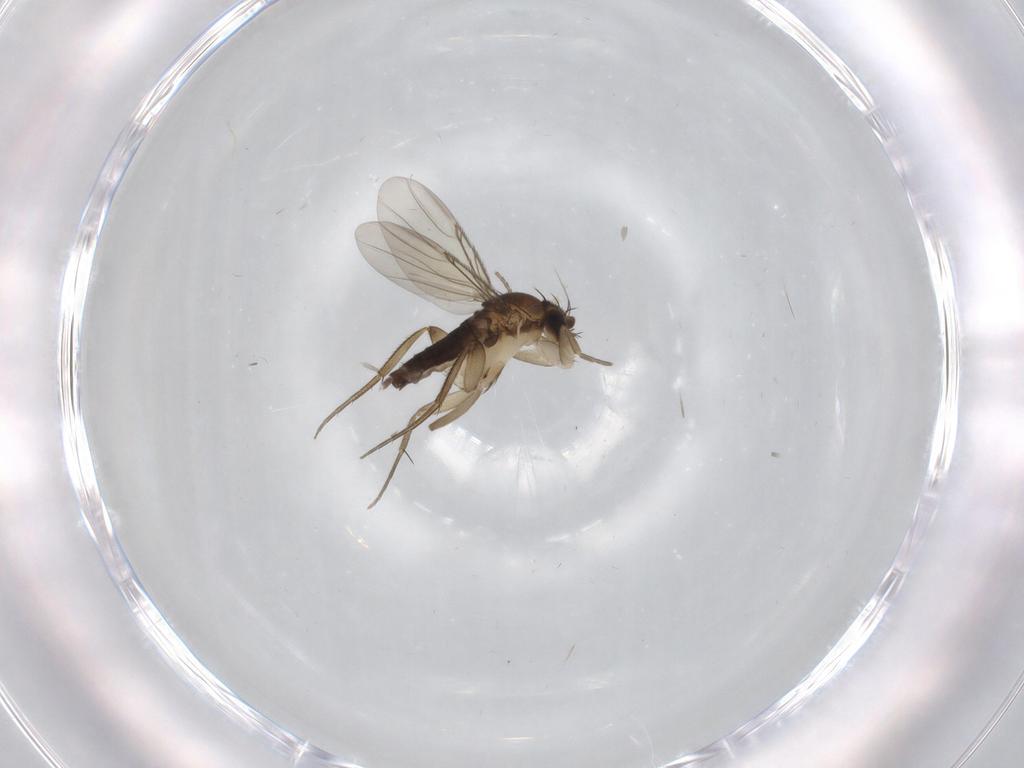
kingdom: Animalia
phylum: Arthropoda
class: Insecta
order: Diptera
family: Phoridae
